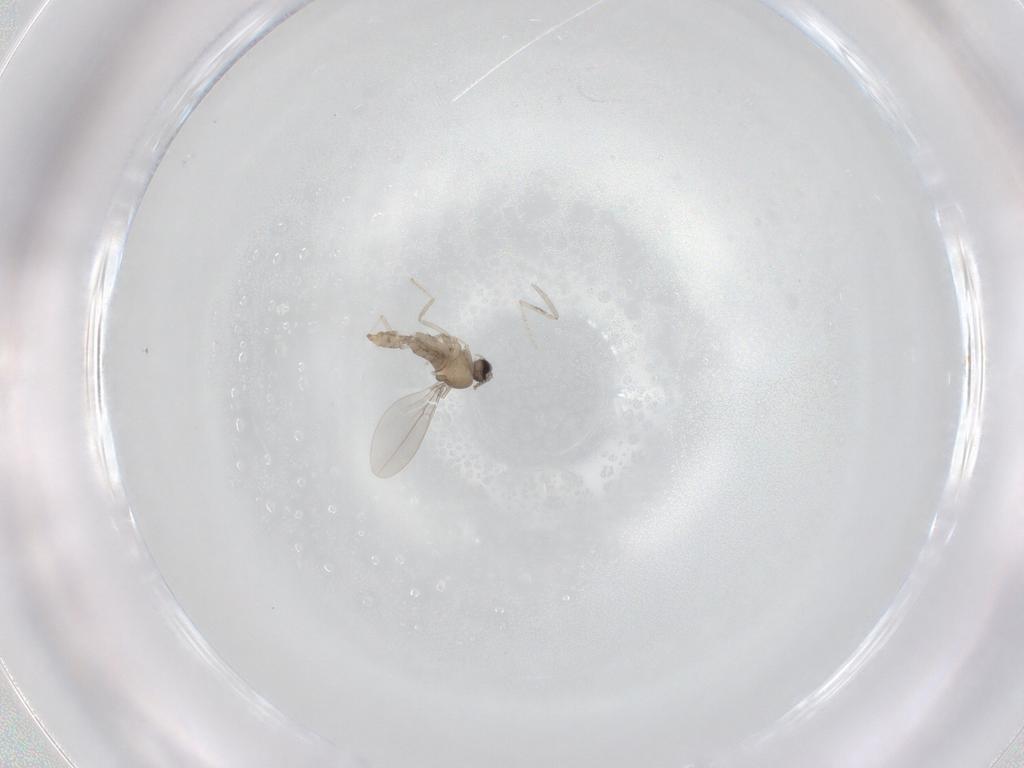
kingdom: Animalia
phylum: Arthropoda
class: Insecta
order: Diptera
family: Cecidomyiidae
